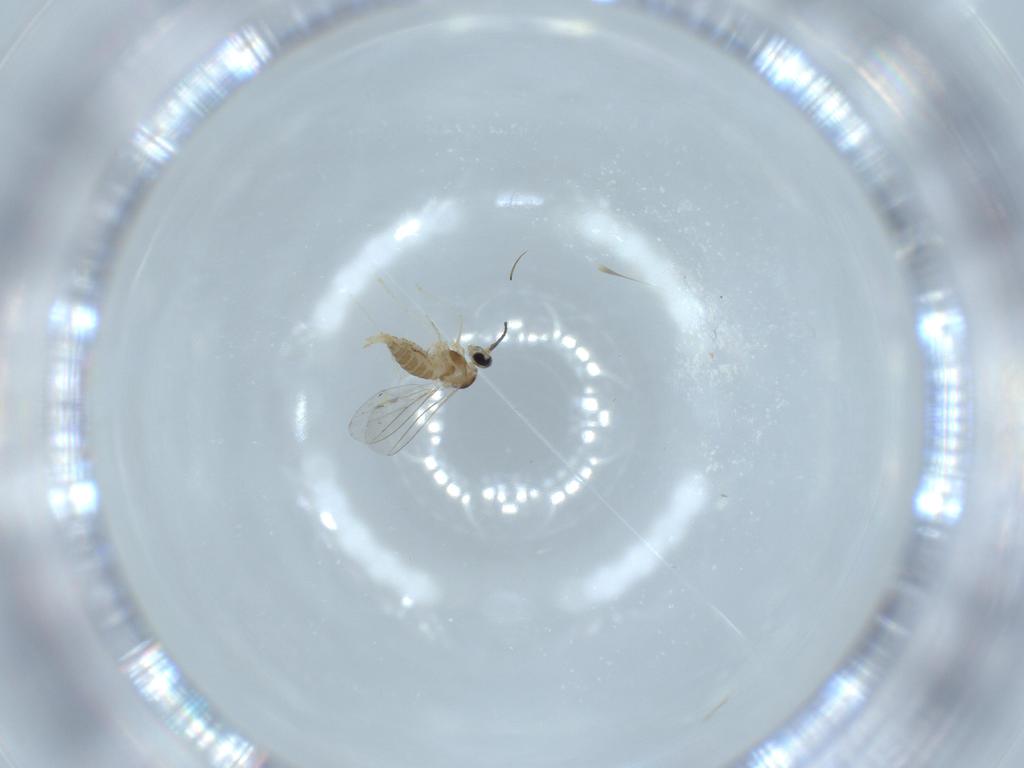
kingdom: Animalia
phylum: Arthropoda
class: Insecta
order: Diptera
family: Cecidomyiidae
